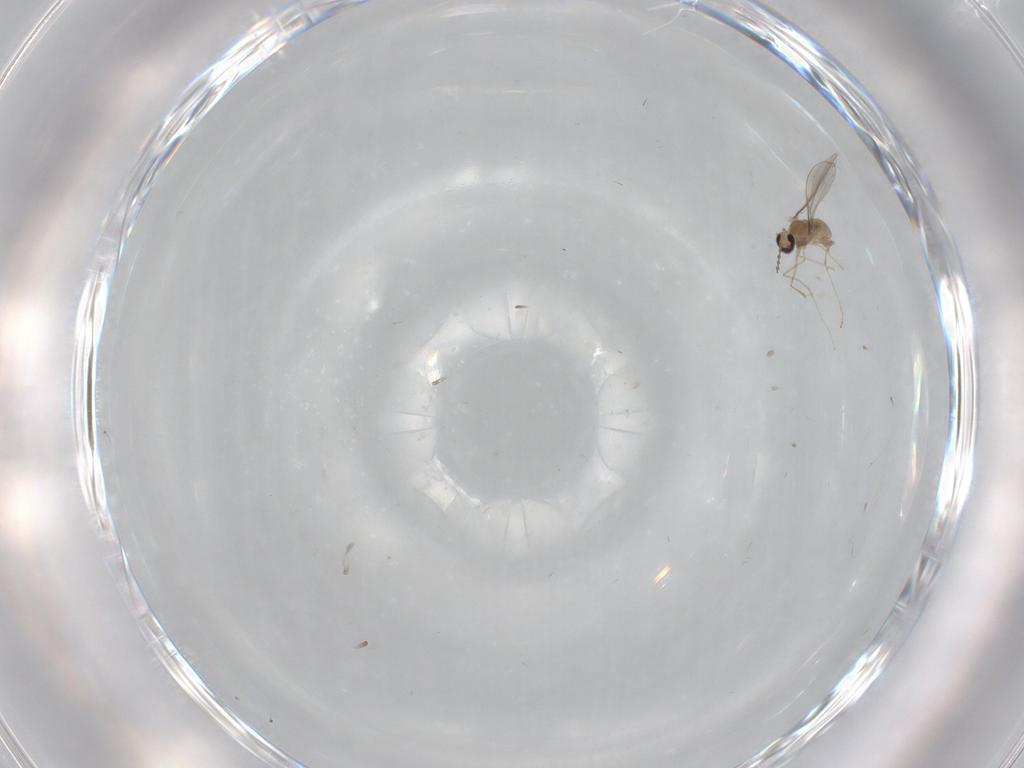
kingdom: Animalia
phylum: Arthropoda
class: Insecta
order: Diptera
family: Cecidomyiidae
